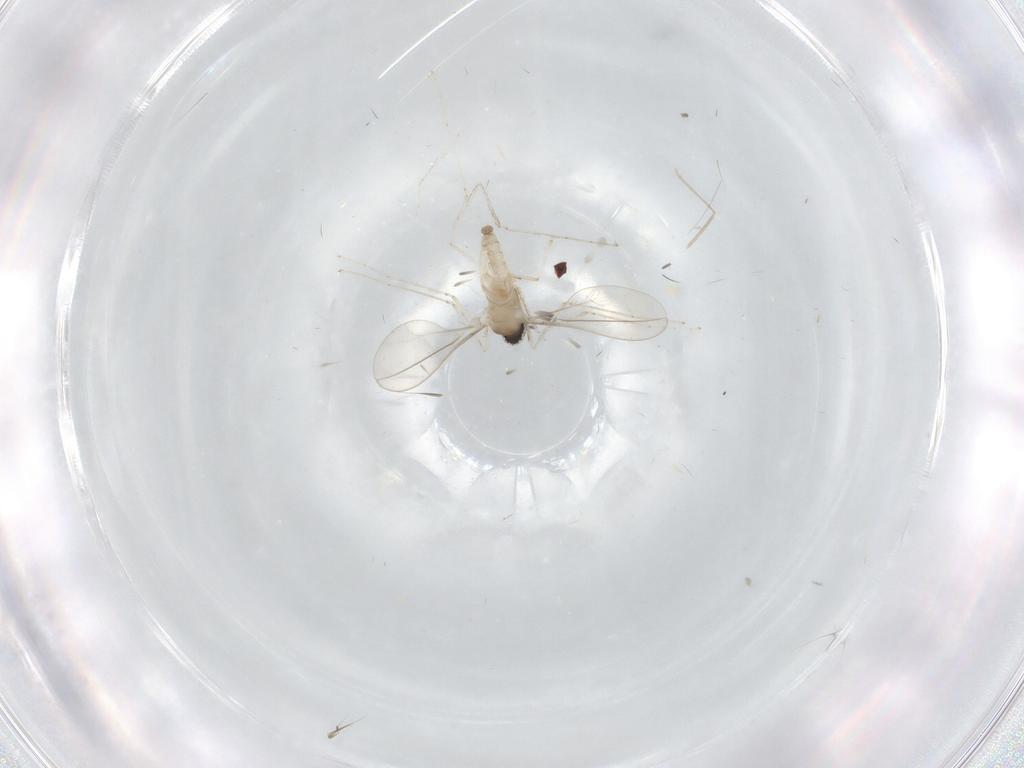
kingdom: Animalia
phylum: Arthropoda
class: Insecta
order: Diptera
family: Cecidomyiidae
